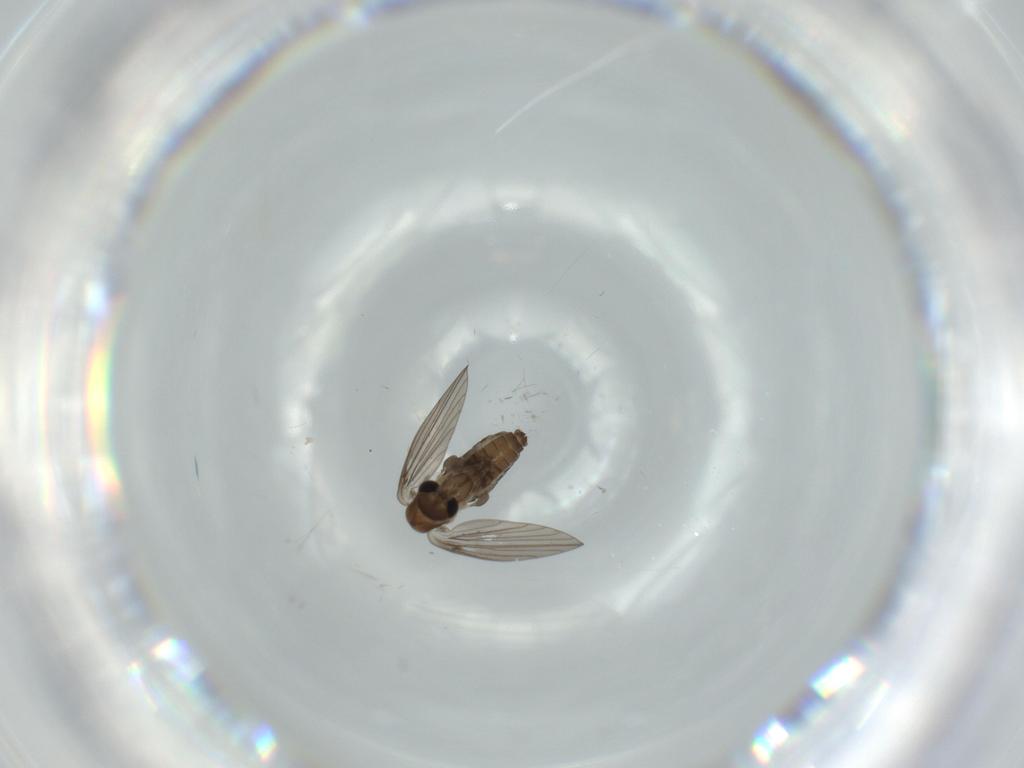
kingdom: Animalia
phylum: Arthropoda
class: Insecta
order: Diptera
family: Psychodidae
